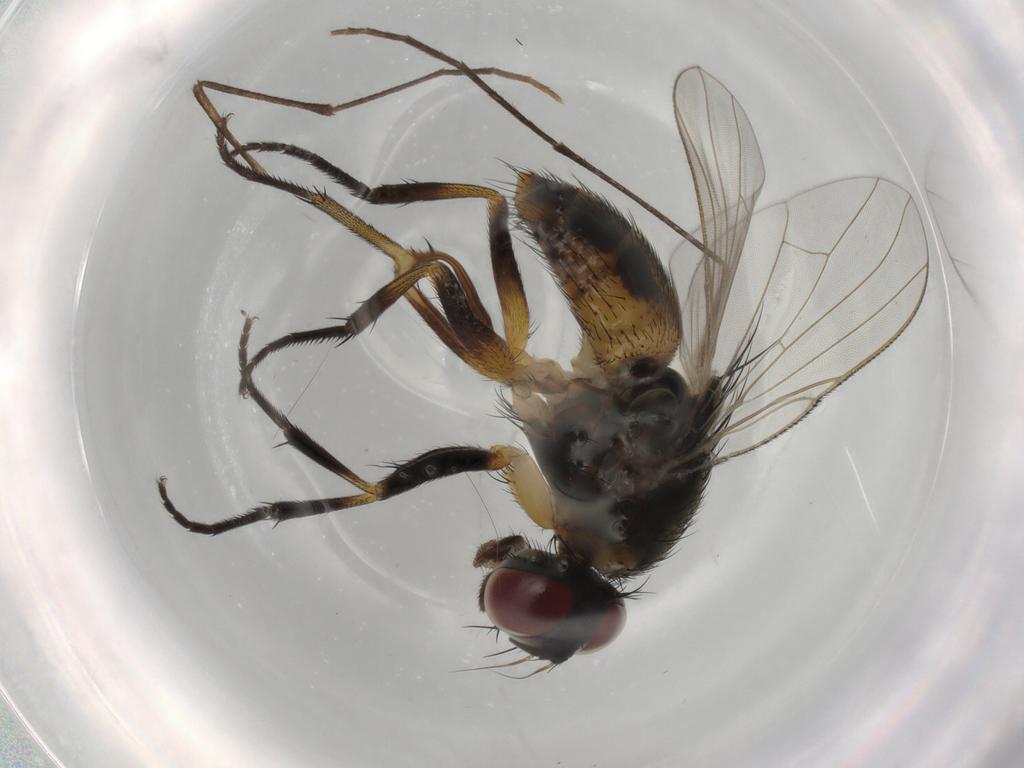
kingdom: Animalia
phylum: Arthropoda
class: Insecta
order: Diptera
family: Muscidae
